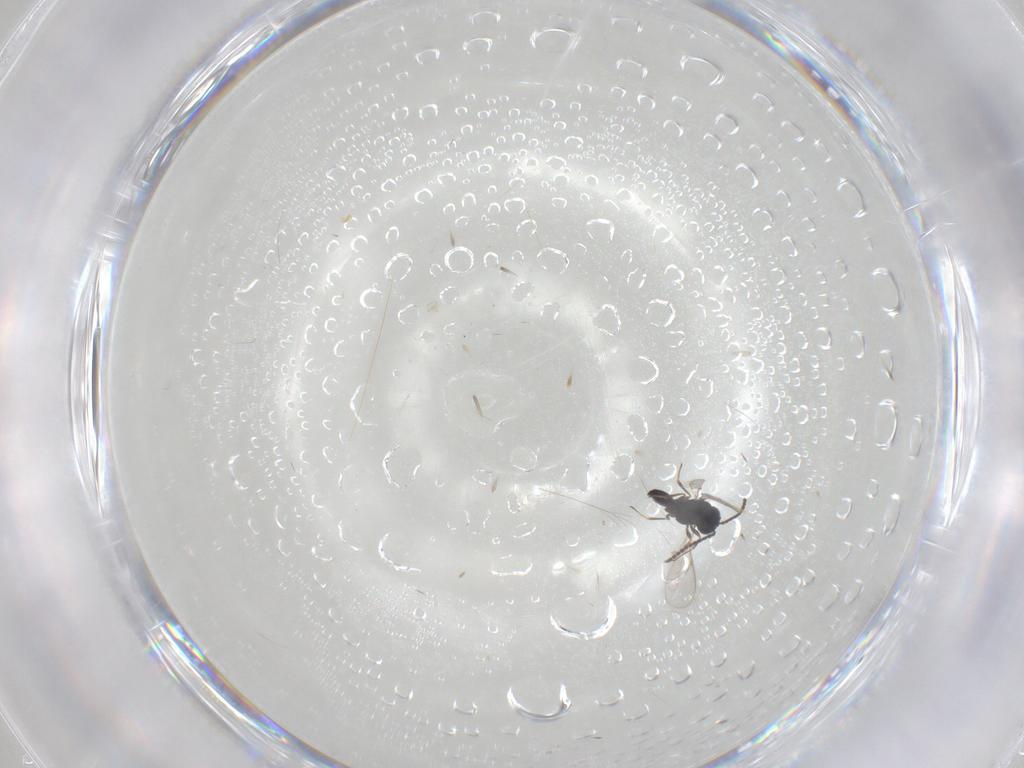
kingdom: Animalia
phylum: Arthropoda
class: Insecta
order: Hymenoptera
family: Scelionidae
